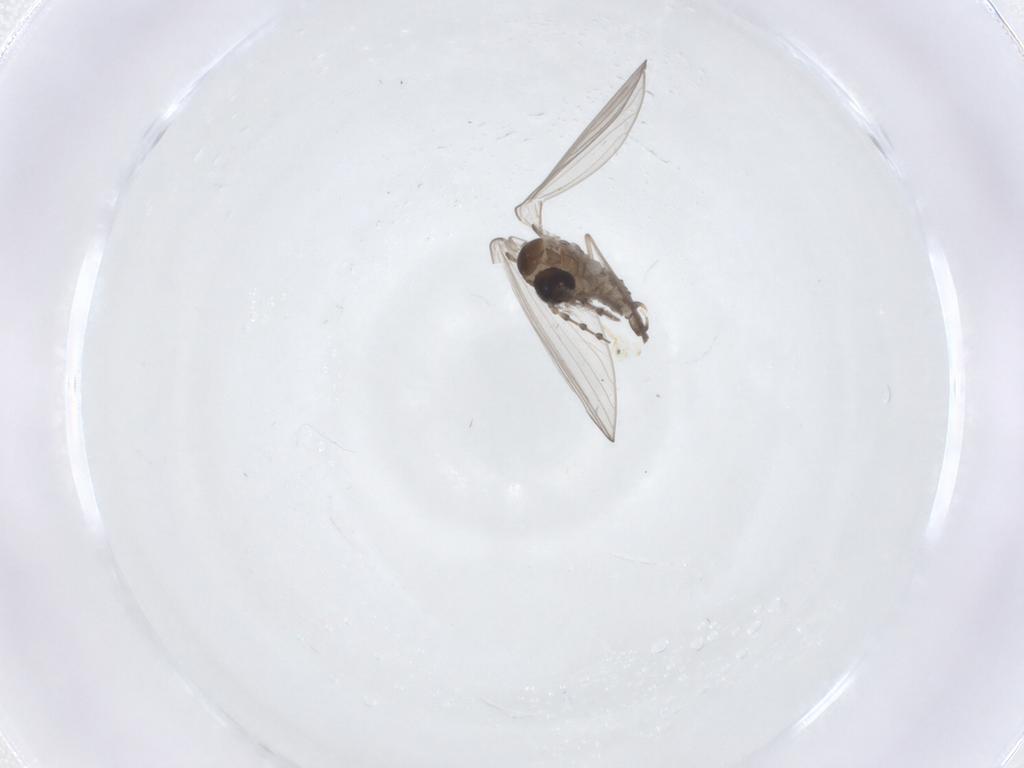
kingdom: Animalia
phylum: Arthropoda
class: Insecta
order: Diptera
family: Psychodidae
